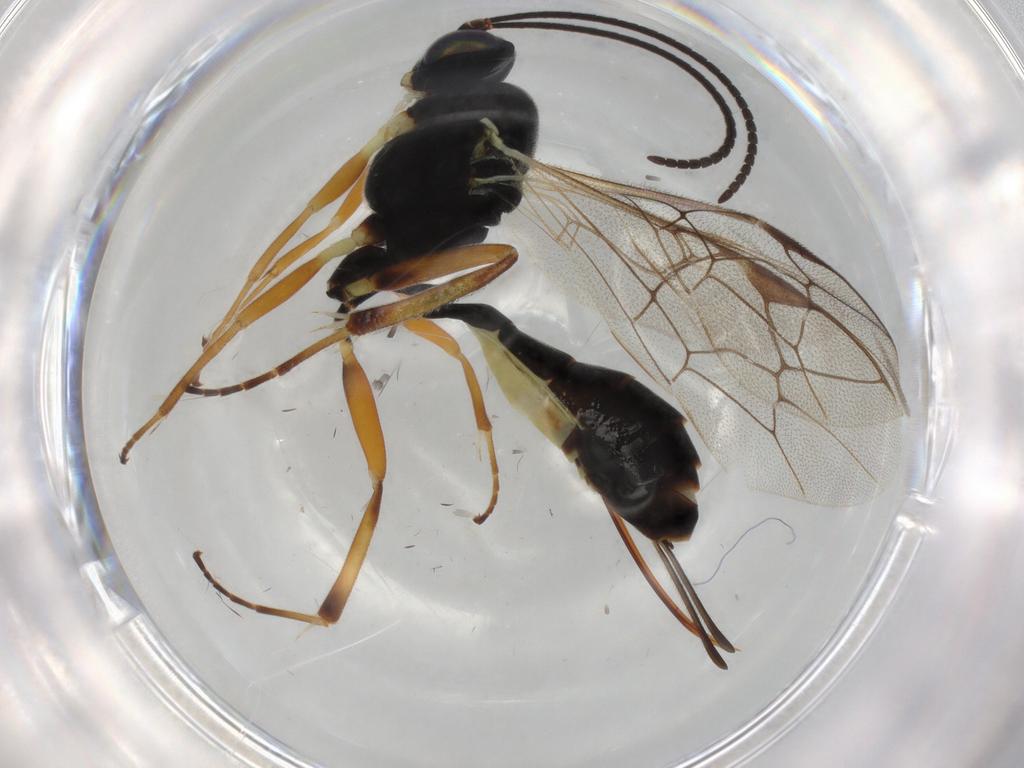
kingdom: Animalia
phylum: Arthropoda
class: Insecta
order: Hymenoptera
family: Ichneumonidae
